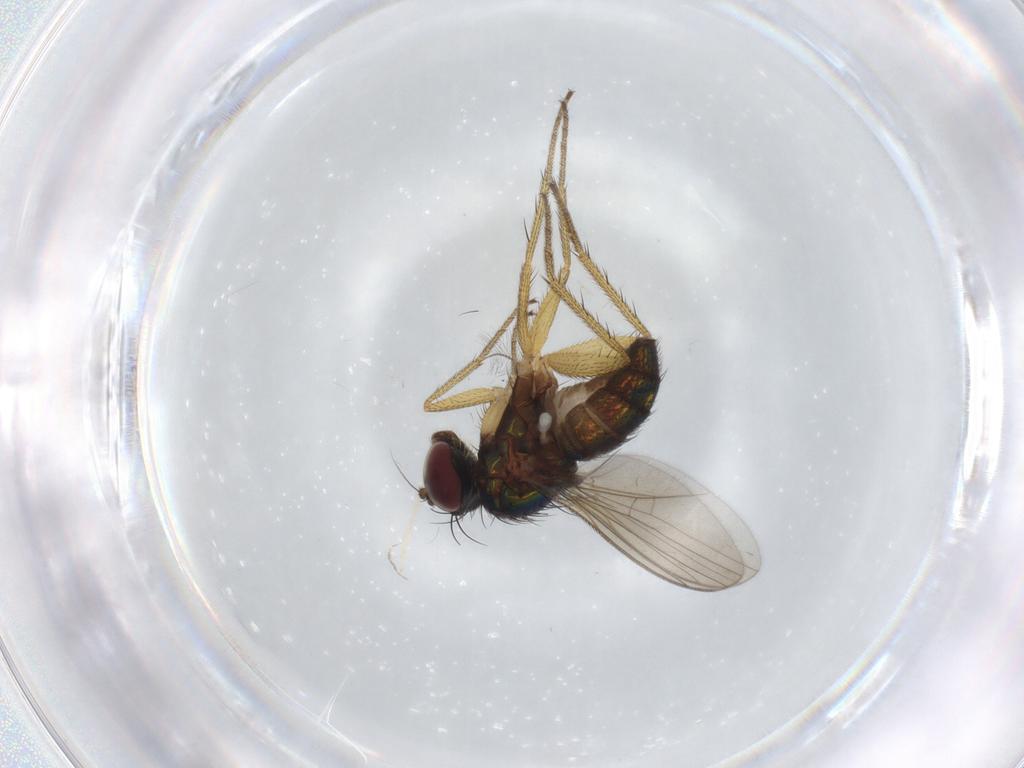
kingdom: Animalia
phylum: Arthropoda
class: Insecta
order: Diptera
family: Dolichopodidae
